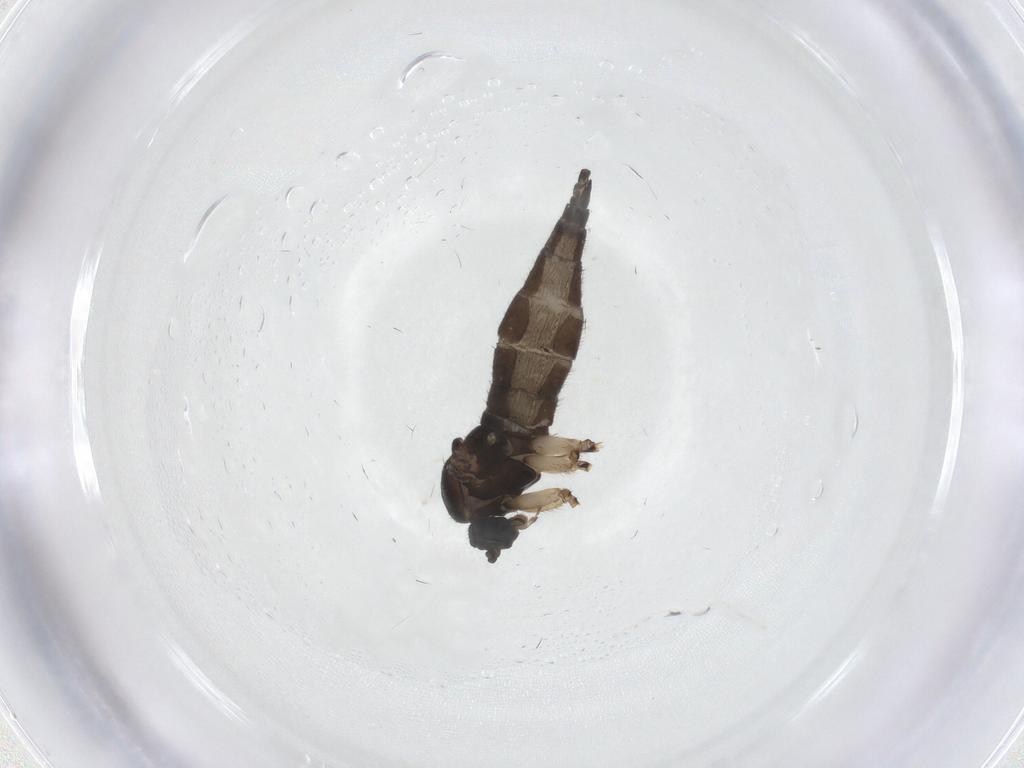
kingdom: Animalia
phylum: Arthropoda
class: Insecta
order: Diptera
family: Sciaridae
